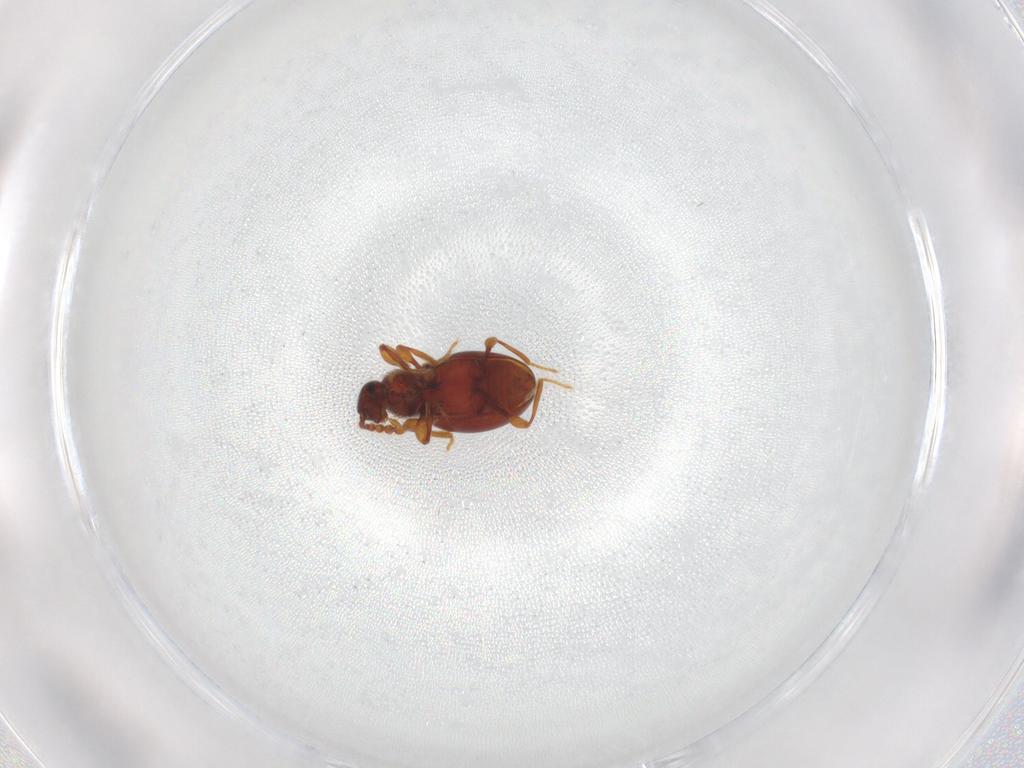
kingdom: Animalia
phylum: Arthropoda
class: Insecta
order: Coleoptera
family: Staphylinidae
